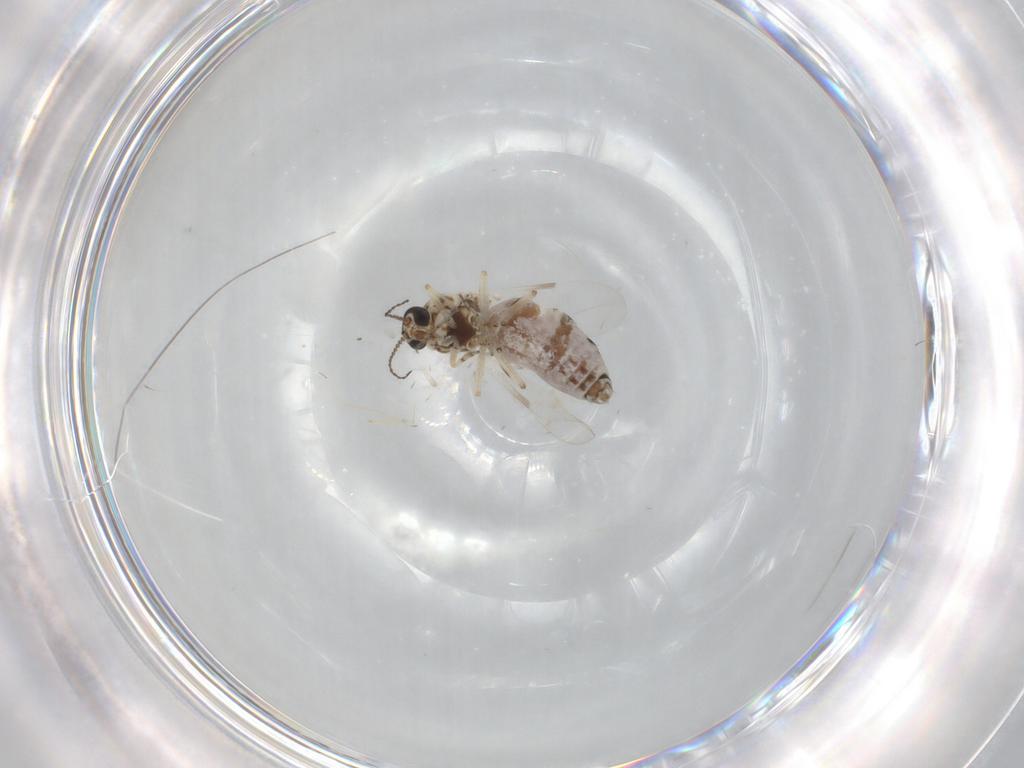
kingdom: Animalia
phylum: Arthropoda
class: Insecta
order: Diptera
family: Ceratopogonidae
